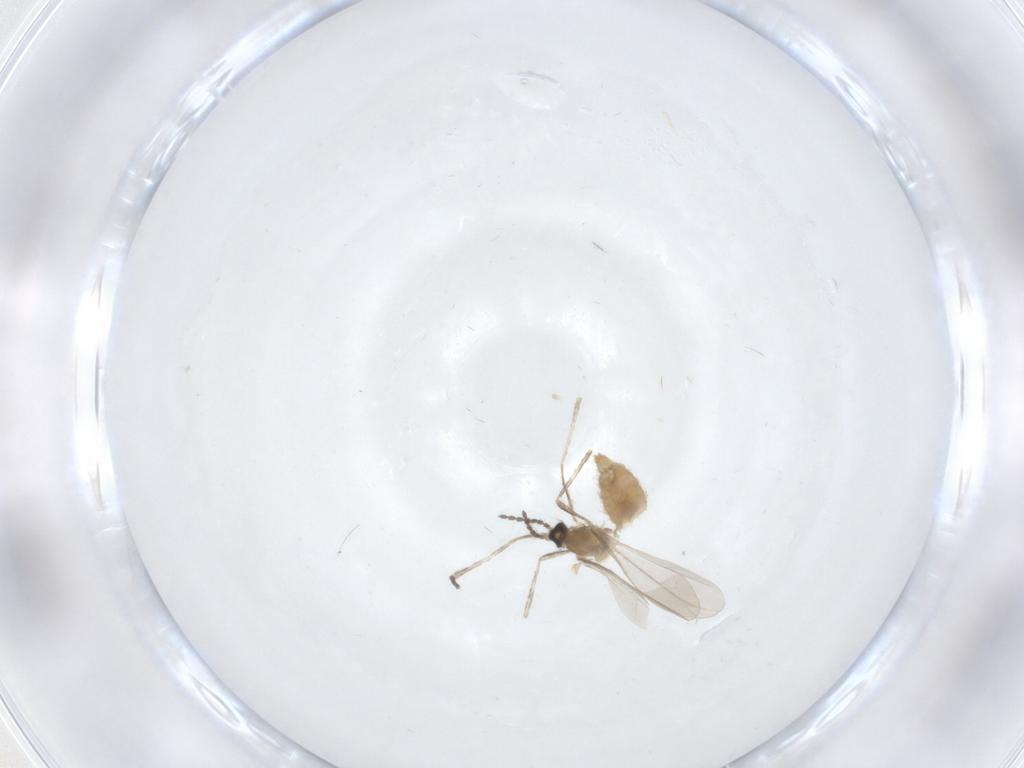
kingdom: Animalia
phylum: Arthropoda
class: Insecta
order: Diptera
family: Cecidomyiidae
